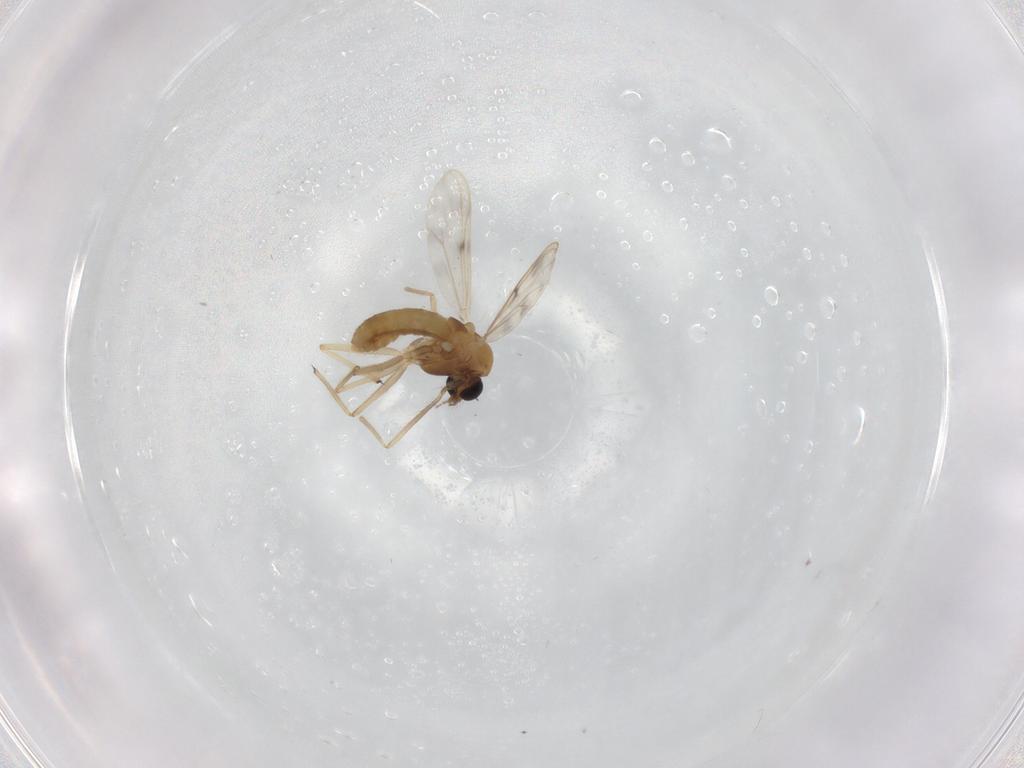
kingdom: Animalia
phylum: Arthropoda
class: Insecta
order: Diptera
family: Chironomidae
